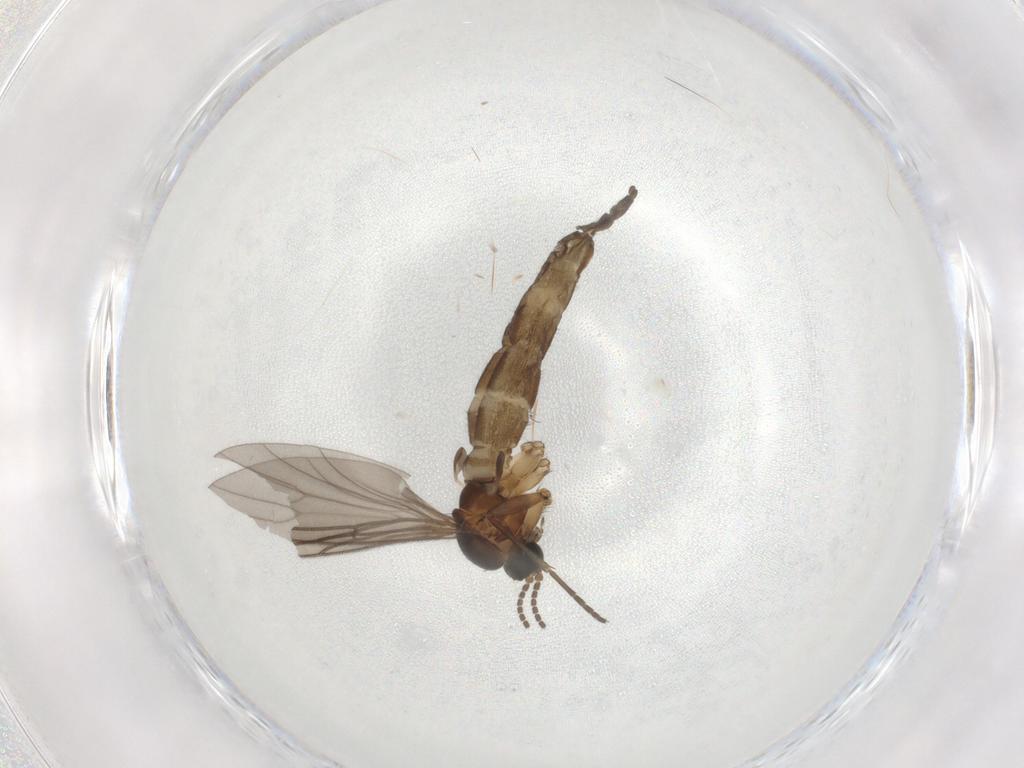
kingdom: Animalia
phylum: Arthropoda
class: Insecta
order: Diptera
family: Sciaridae
